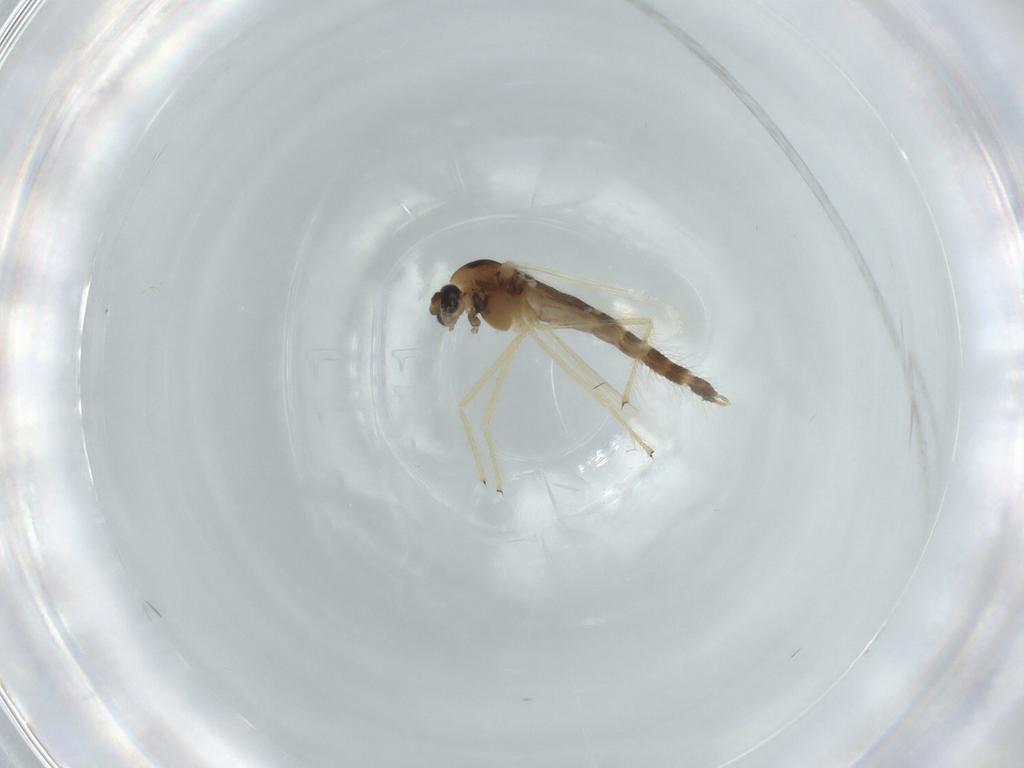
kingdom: Animalia
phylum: Arthropoda
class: Insecta
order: Diptera
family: Chironomidae
